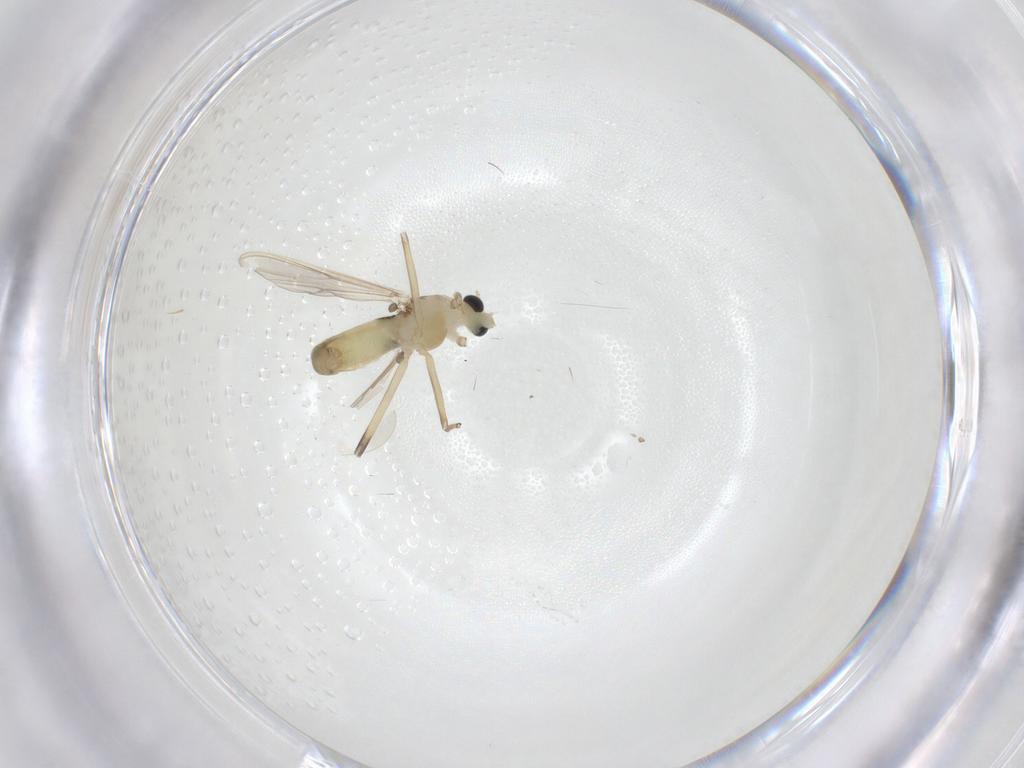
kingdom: Animalia
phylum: Arthropoda
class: Insecta
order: Diptera
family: Chironomidae
